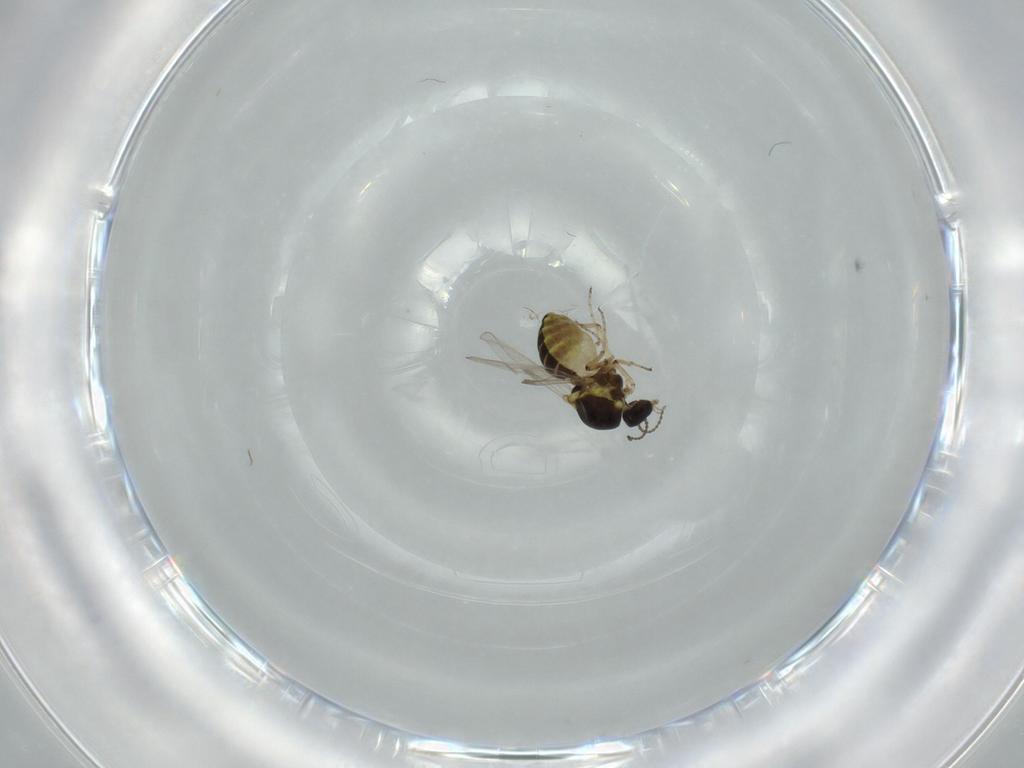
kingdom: Animalia
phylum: Arthropoda
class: Insecta
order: Diptera
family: Ceratopogonidae
